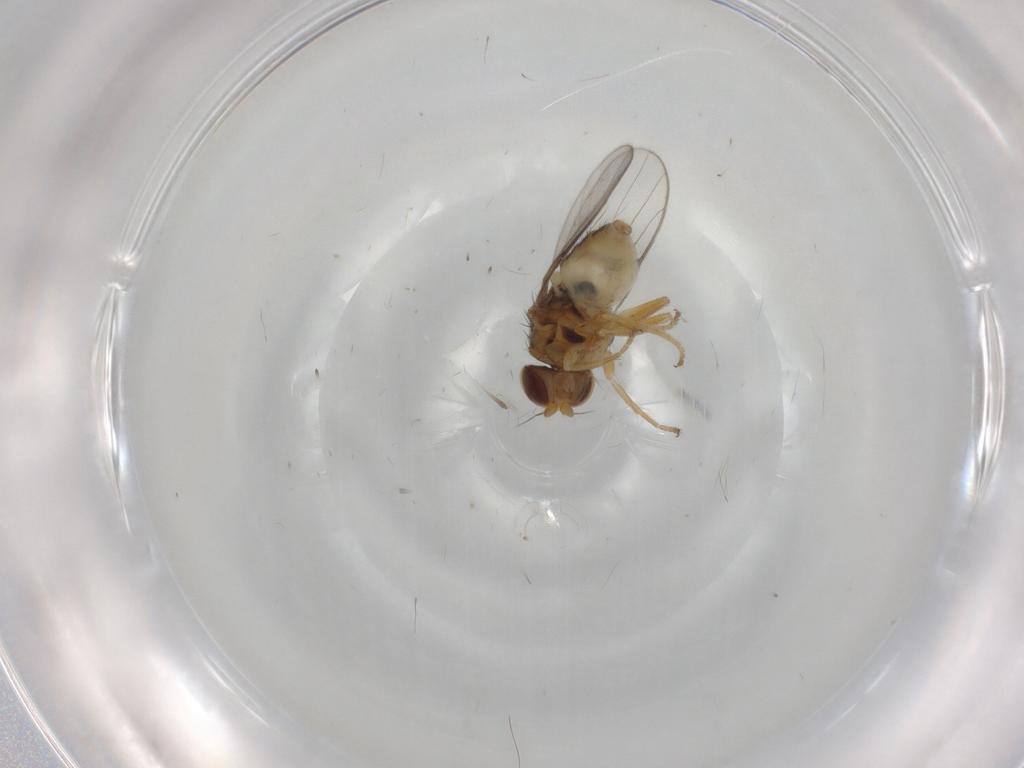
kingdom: Animalia
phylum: Arthropoda
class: Insecta
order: Diptera
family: Chloropidae
